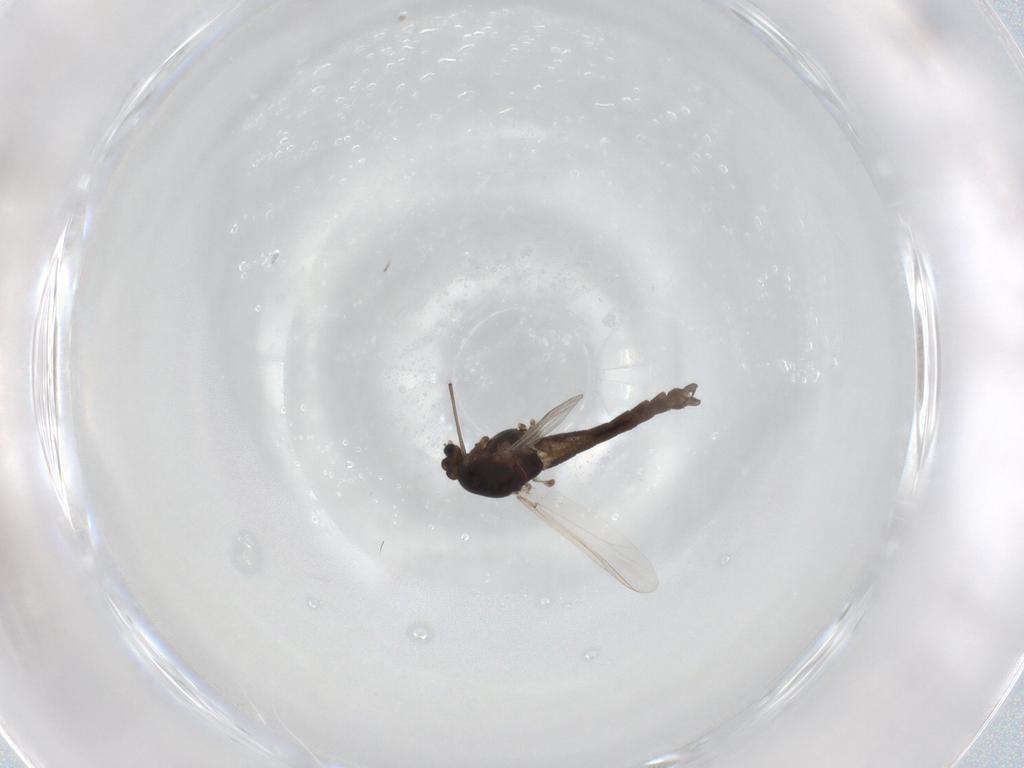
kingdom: Animalia
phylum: Arthropoda
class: Insecta
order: Diptera
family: Chironomidae
